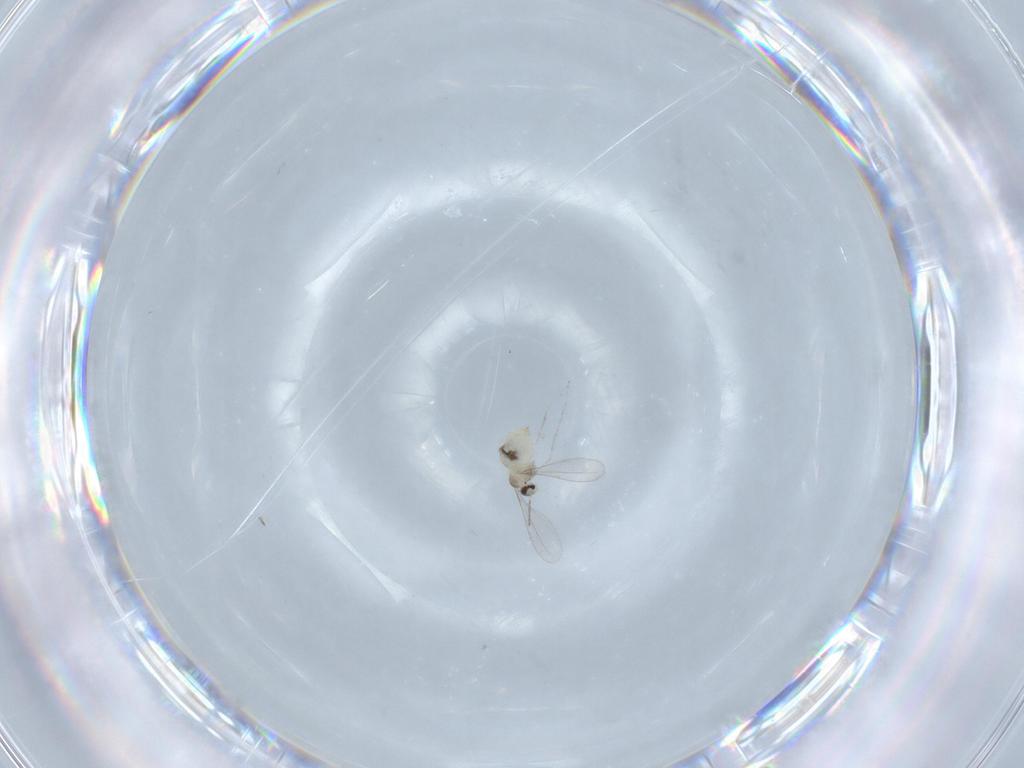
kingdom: Animalia
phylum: Arthropoda
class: Insecta
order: Diptera
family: Cecidomyiidae
